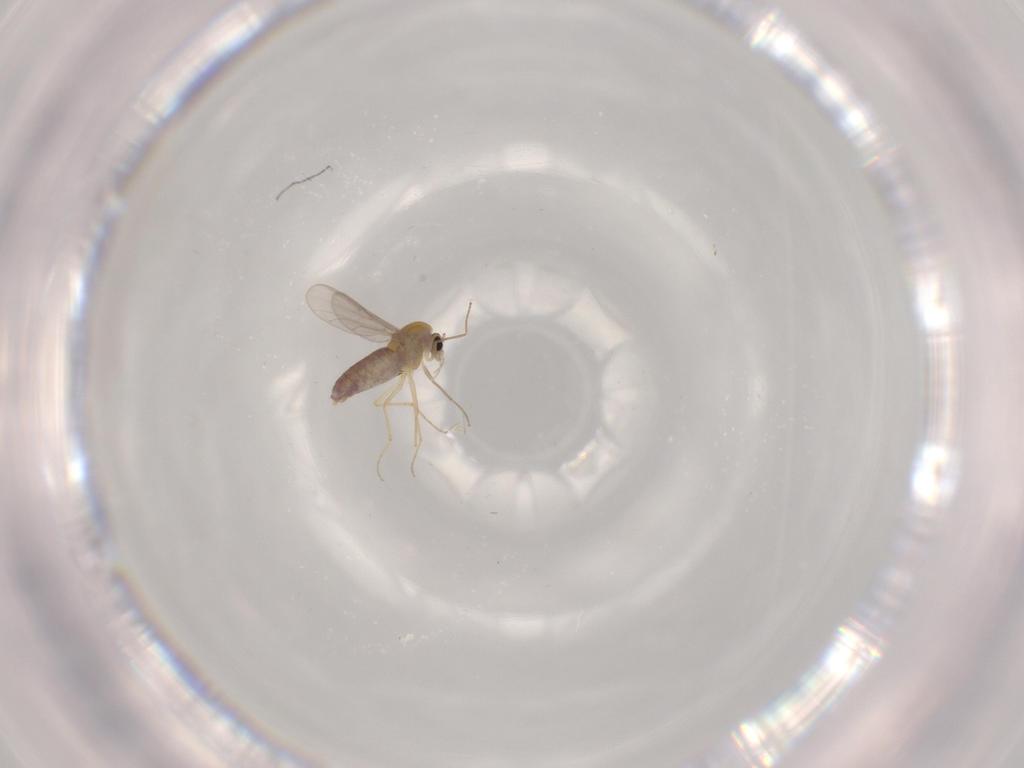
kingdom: Animalia
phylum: Arthropoda
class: Insecta
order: Diptera
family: Chironomidae
